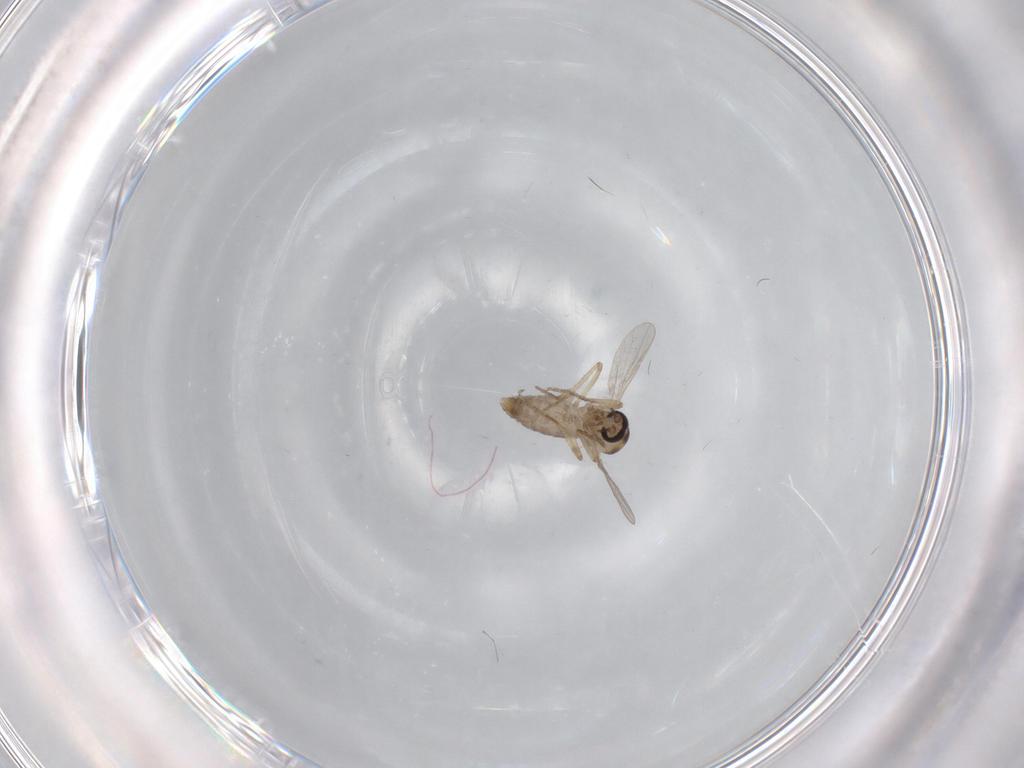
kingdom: Animalia
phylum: Arthropoda
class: Insecta
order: Diptera
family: Ceratopogonidae
